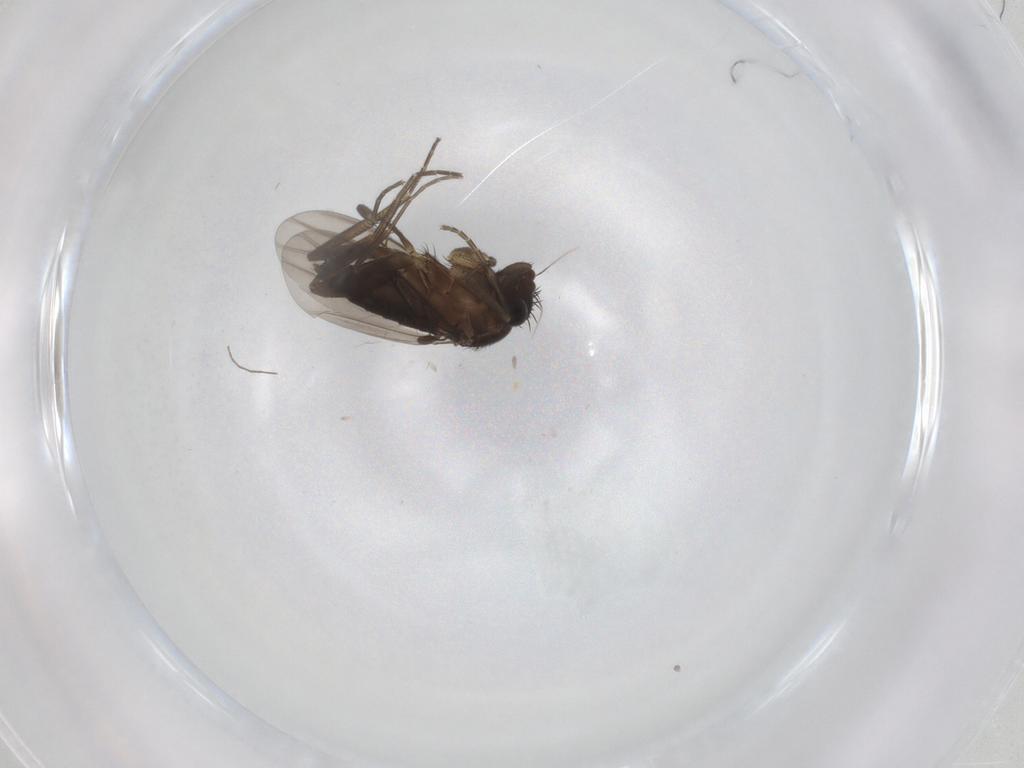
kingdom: Animalia
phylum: Arthropoda
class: Insecta
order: Diptera
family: Phoridae
